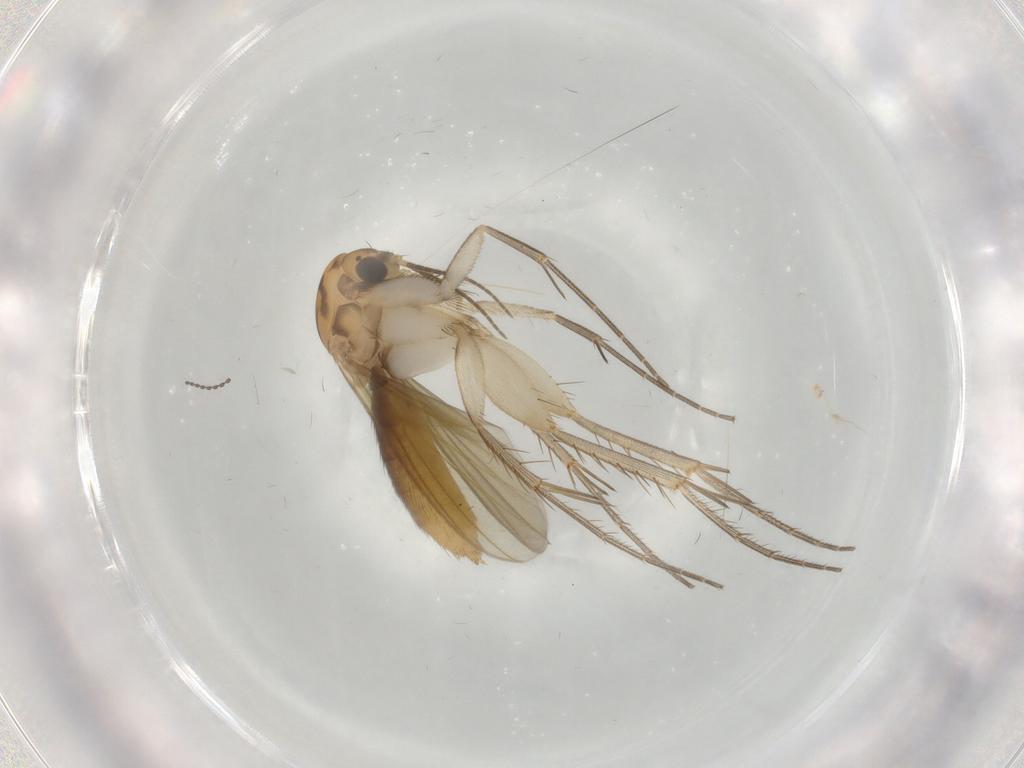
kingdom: Animalia
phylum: Arthropoda
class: Insecta
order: Diptera
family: Mycetophilidae
